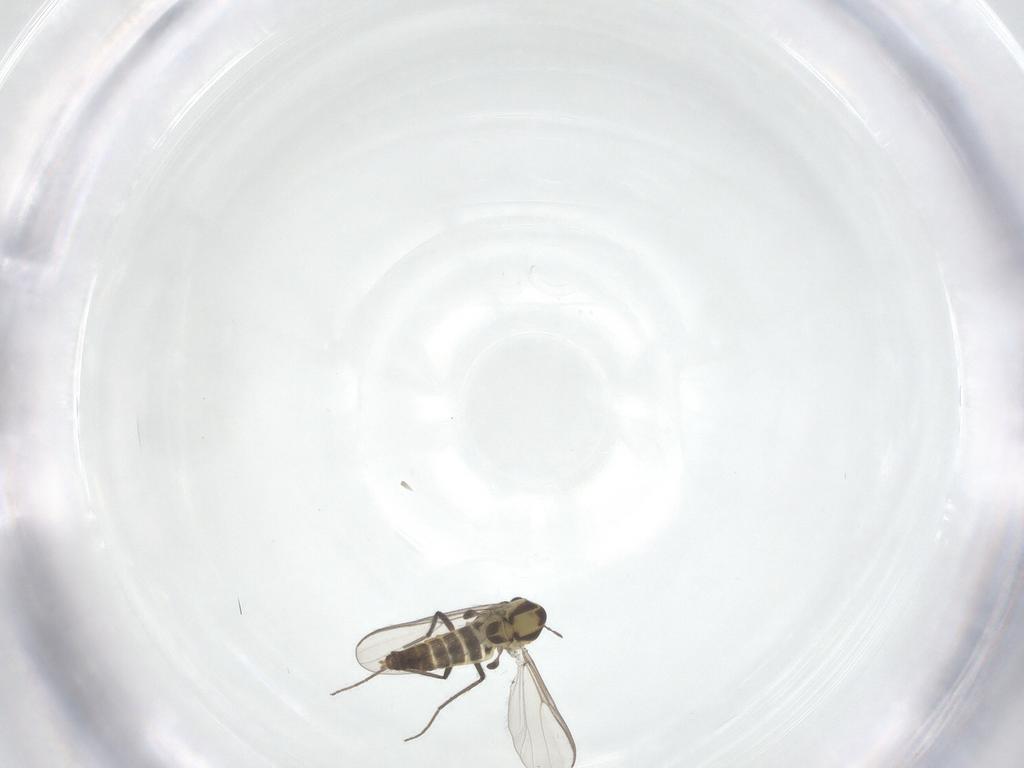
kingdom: Animalia
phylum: Arthropoda
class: Insecta
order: Diptera
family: Chironomidae
